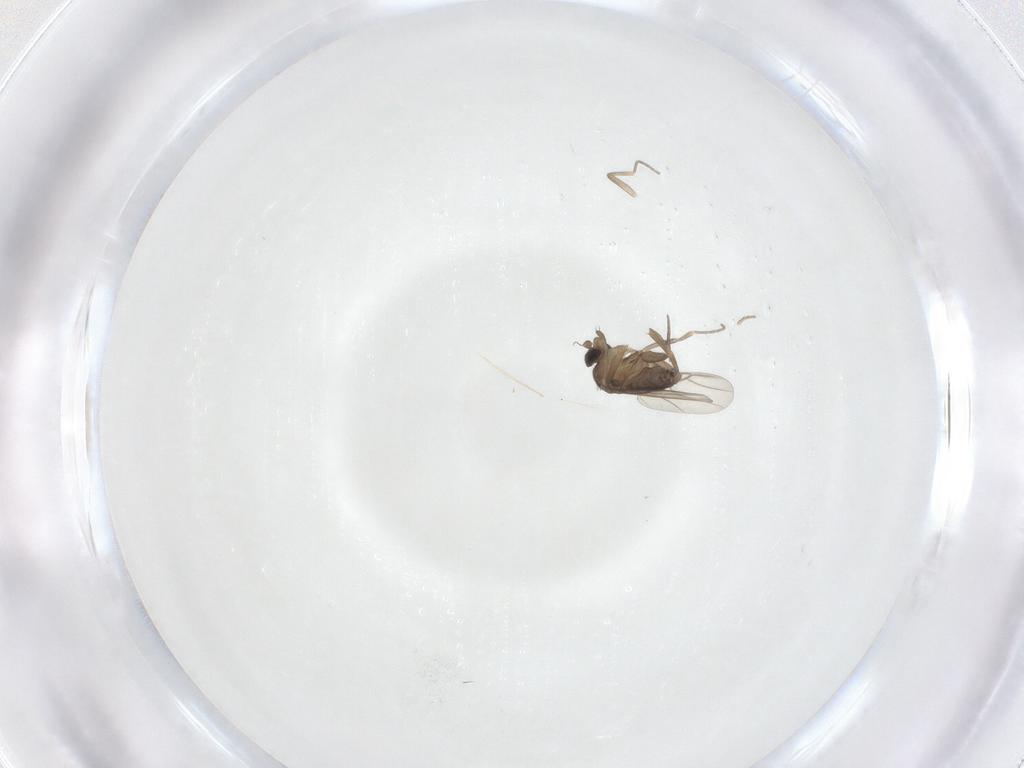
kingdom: Animalia
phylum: Arthropoda
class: Insecta
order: Diptera
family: Phoridae
